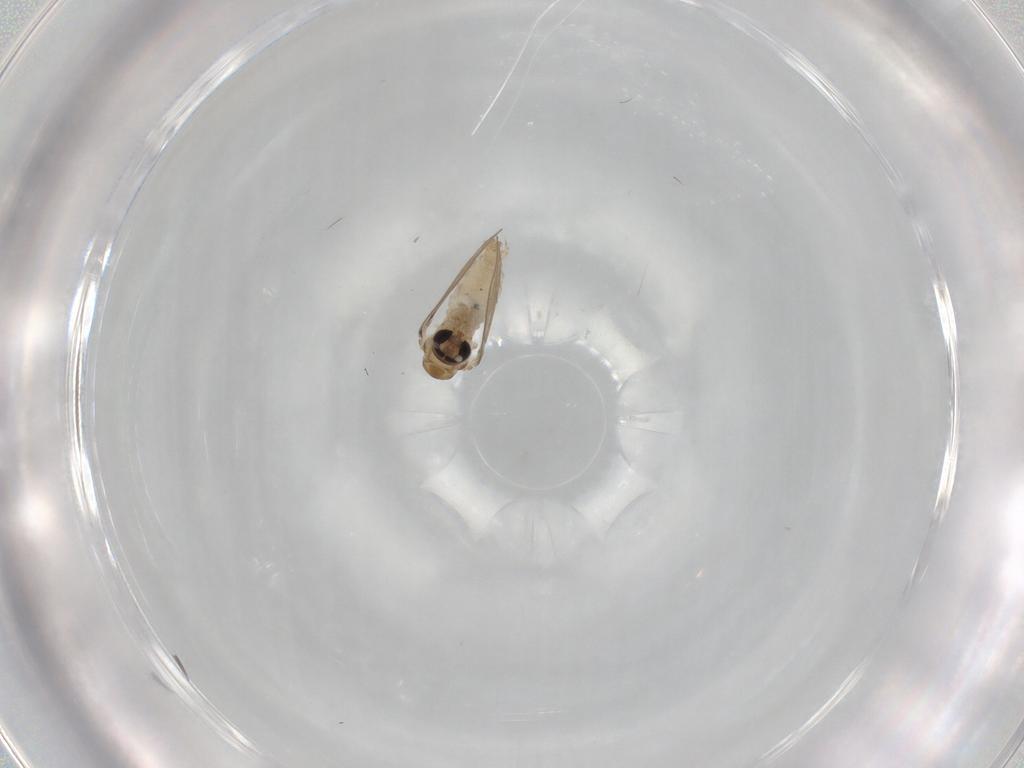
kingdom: Animalia
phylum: Arthropoda
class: Insecta
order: Diptera
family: Psychodidae
